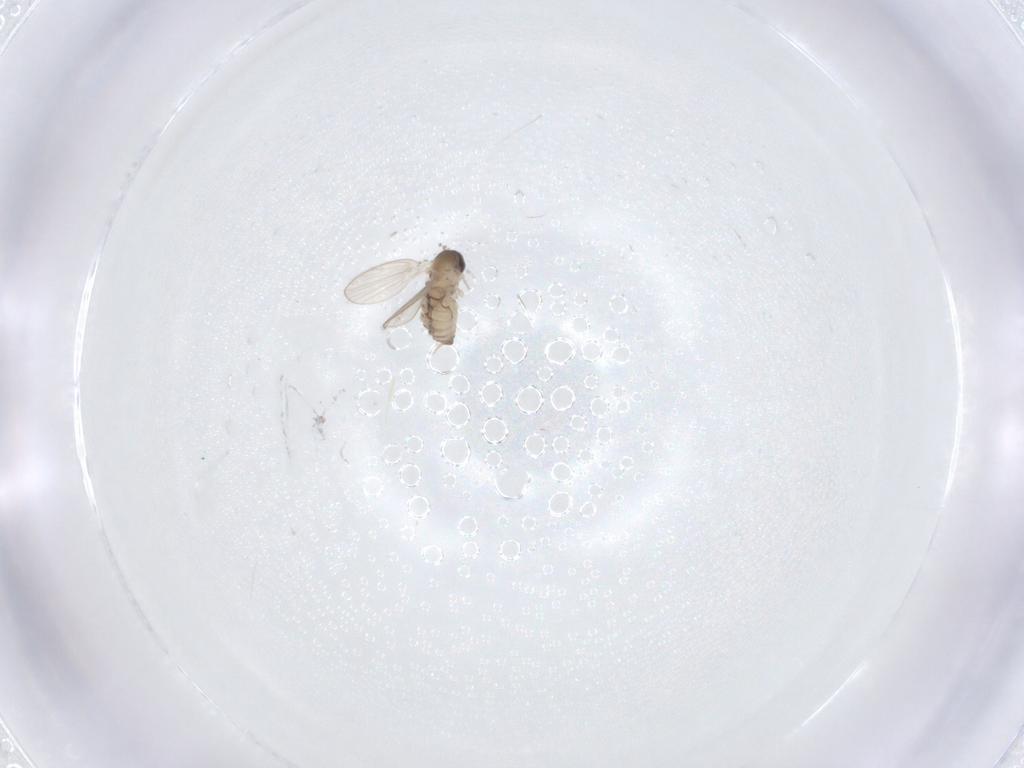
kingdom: Animalia
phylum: Arthropoda
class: Insecta
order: Diptera
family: Psychodidae
